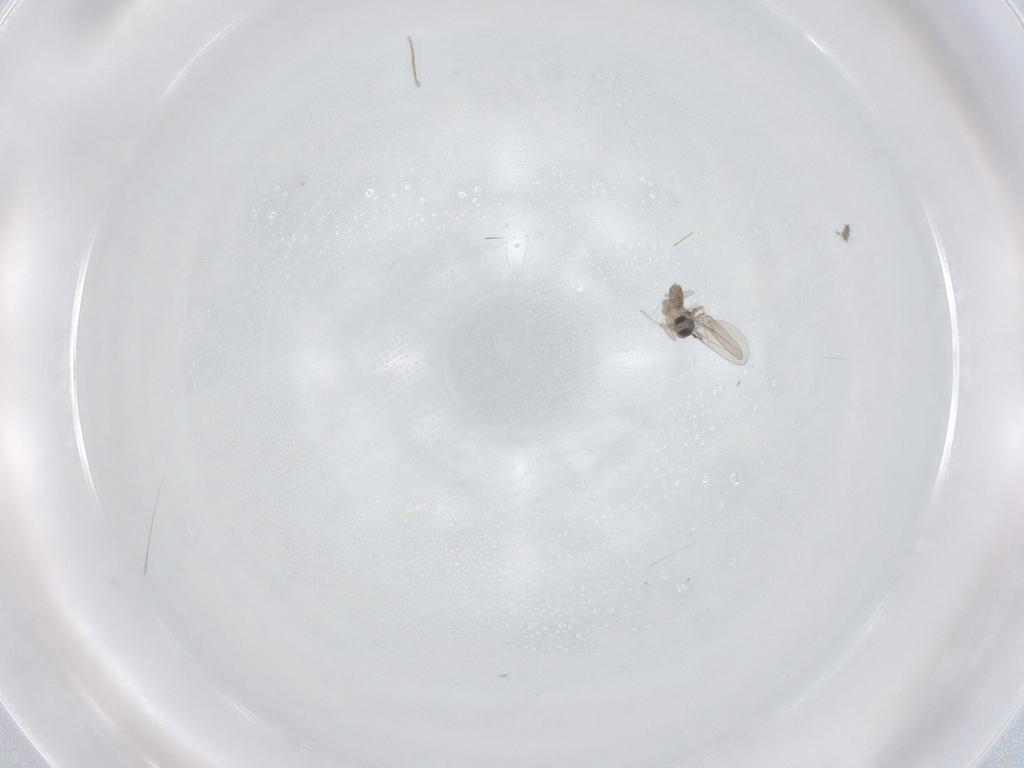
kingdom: Animalia
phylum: Arthropoda
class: Insecta
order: Diptera
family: Cecidomyiidae
